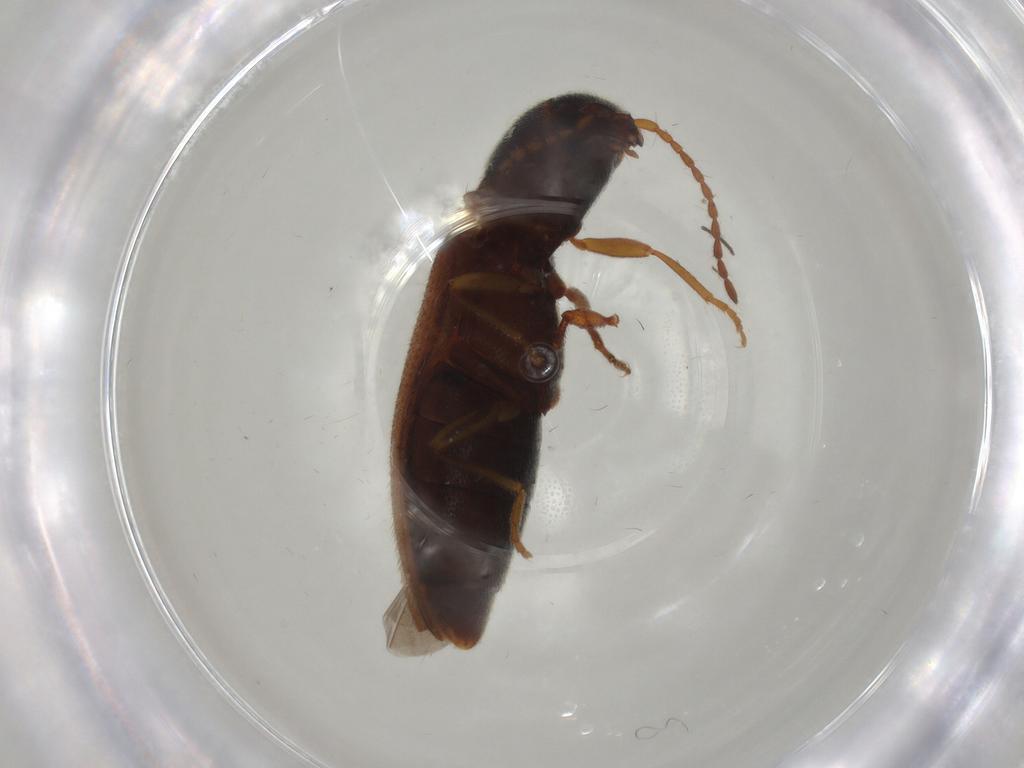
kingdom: Animalia
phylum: Arthropoda
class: Insecta
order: Coleoptera
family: Elateridae
